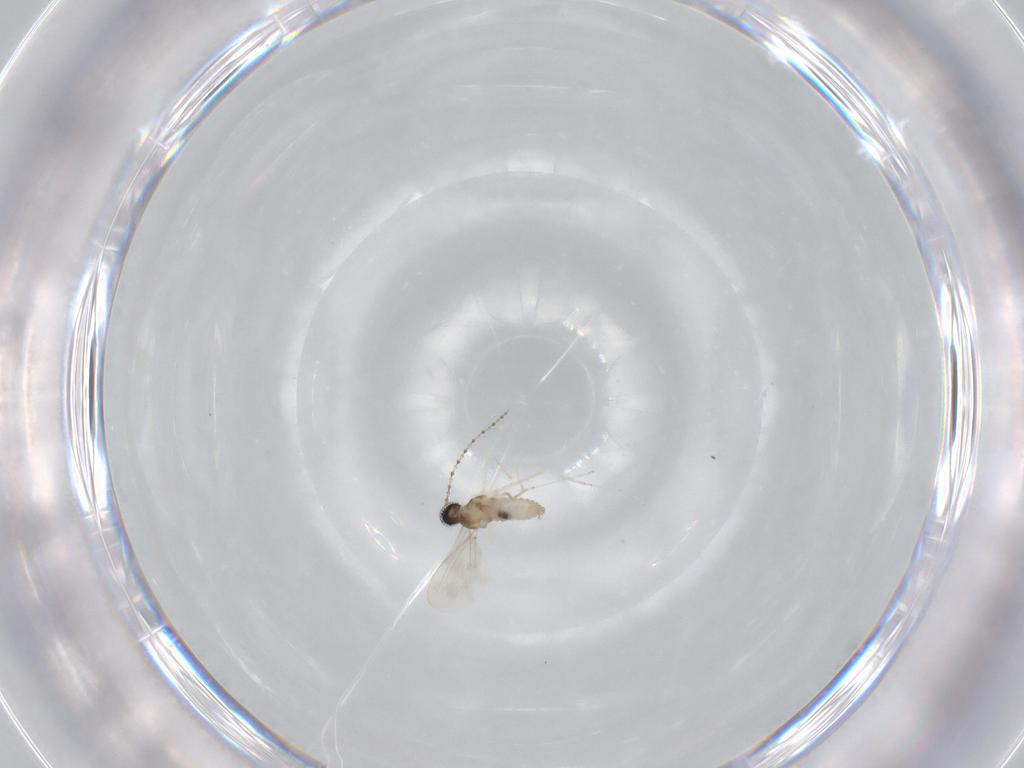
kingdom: Animalia
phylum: Arthropoda
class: Insecta
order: Diptera
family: Cecidomyiidae
